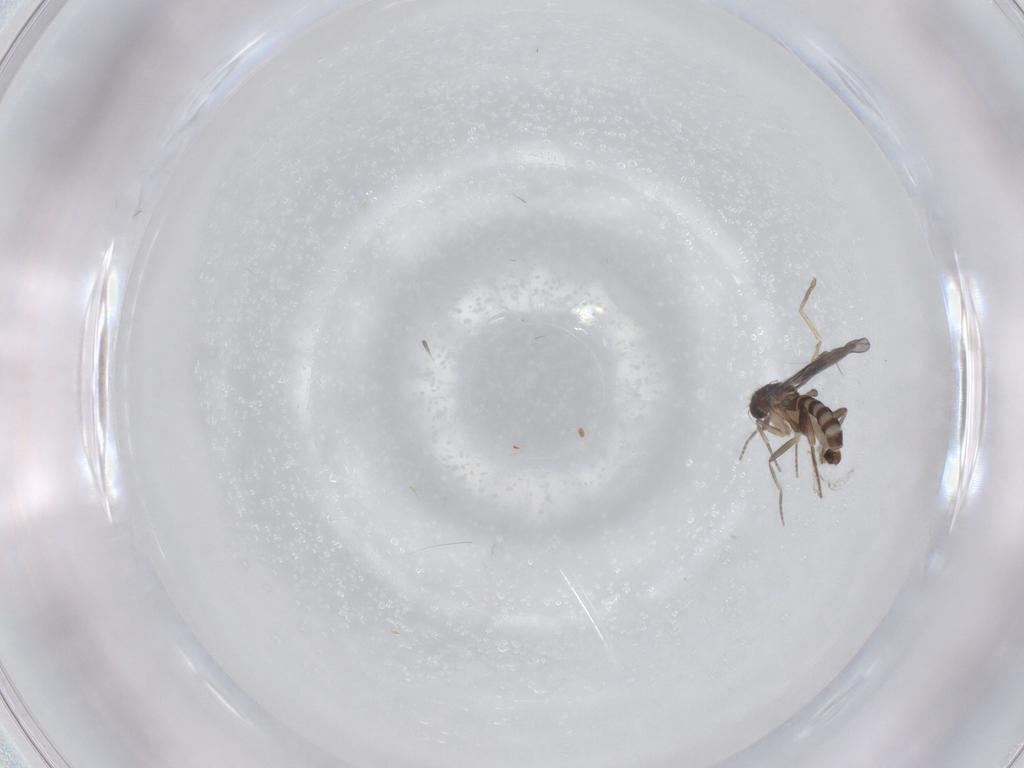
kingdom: Animalia
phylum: Arthropoda
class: Insecta
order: Diptera
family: Chironomidae
